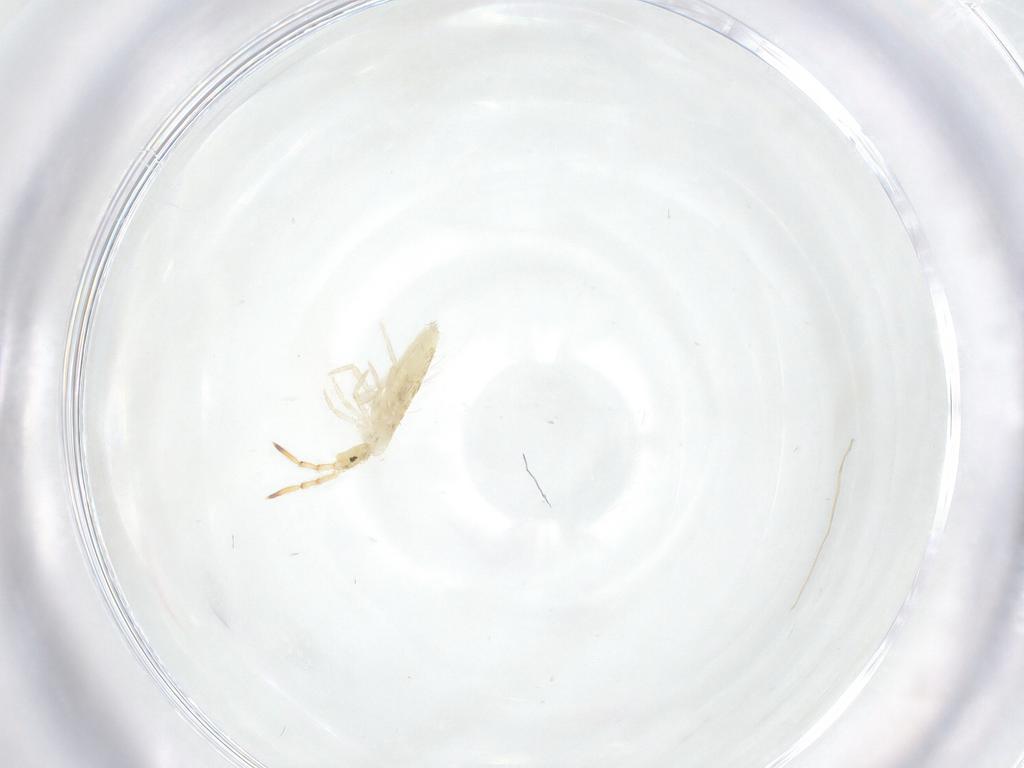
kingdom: Animalia
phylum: Arthropoda
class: Collembola
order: Entomobryomorpha
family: Entomobryidae
